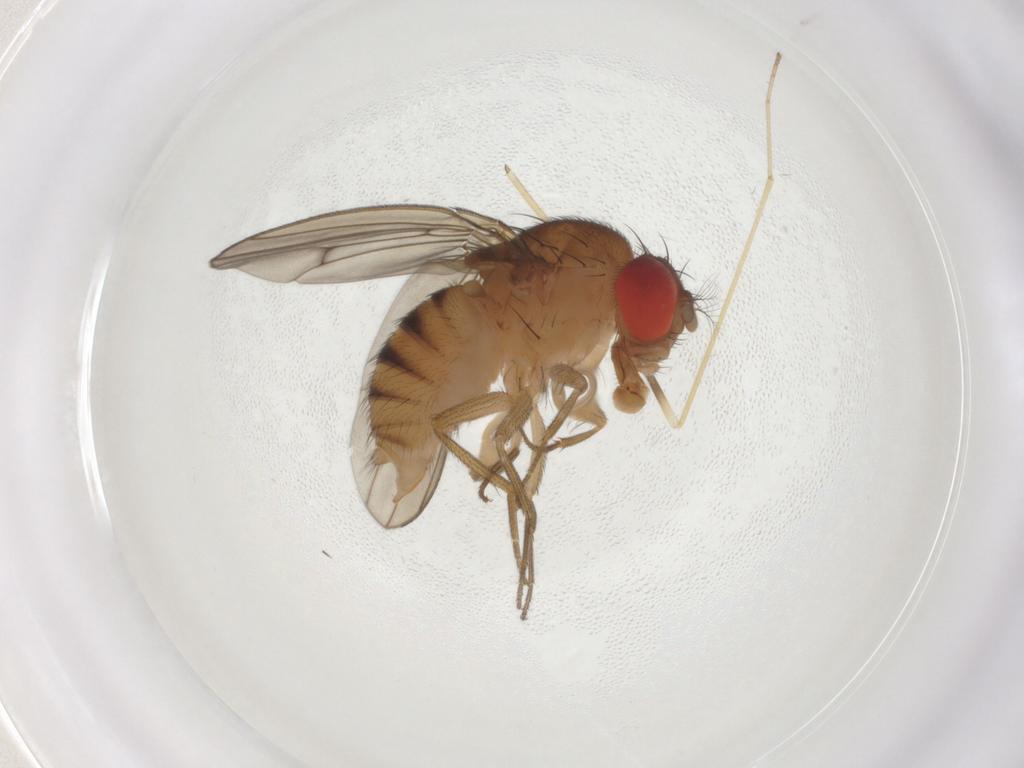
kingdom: Animalia
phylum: Arthropoda
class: Insecta
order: Diptera
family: Drosophilidae
